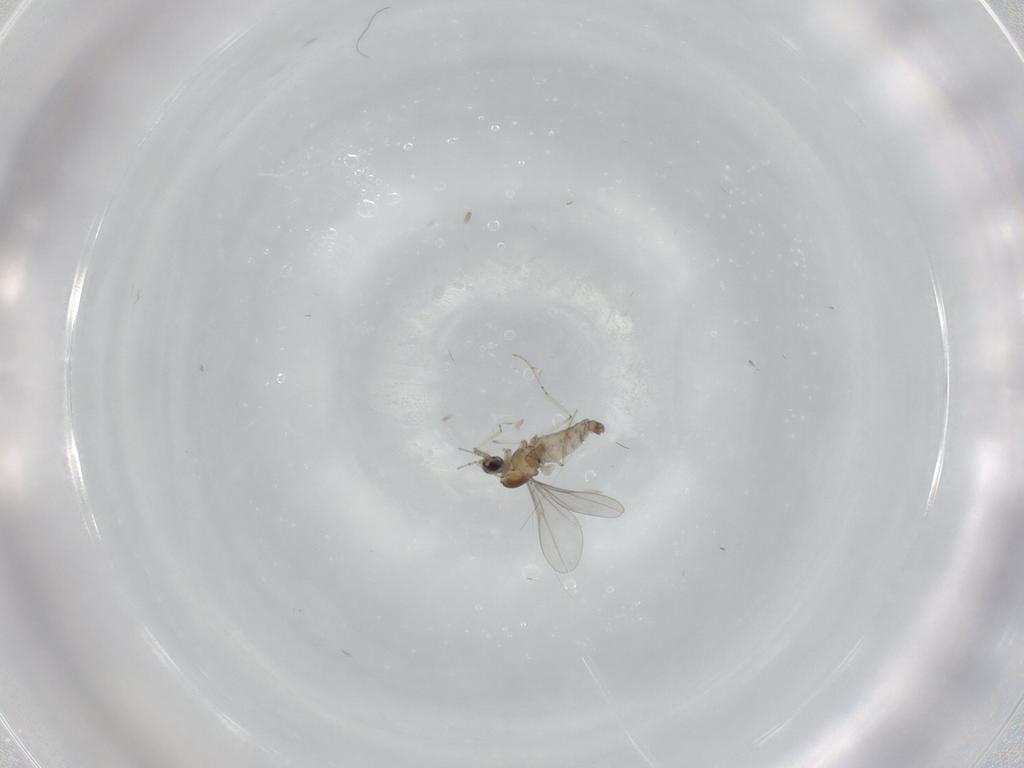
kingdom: Animalia
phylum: Arthropoda
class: Insecta
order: Diptera
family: Cecidomyiidae
